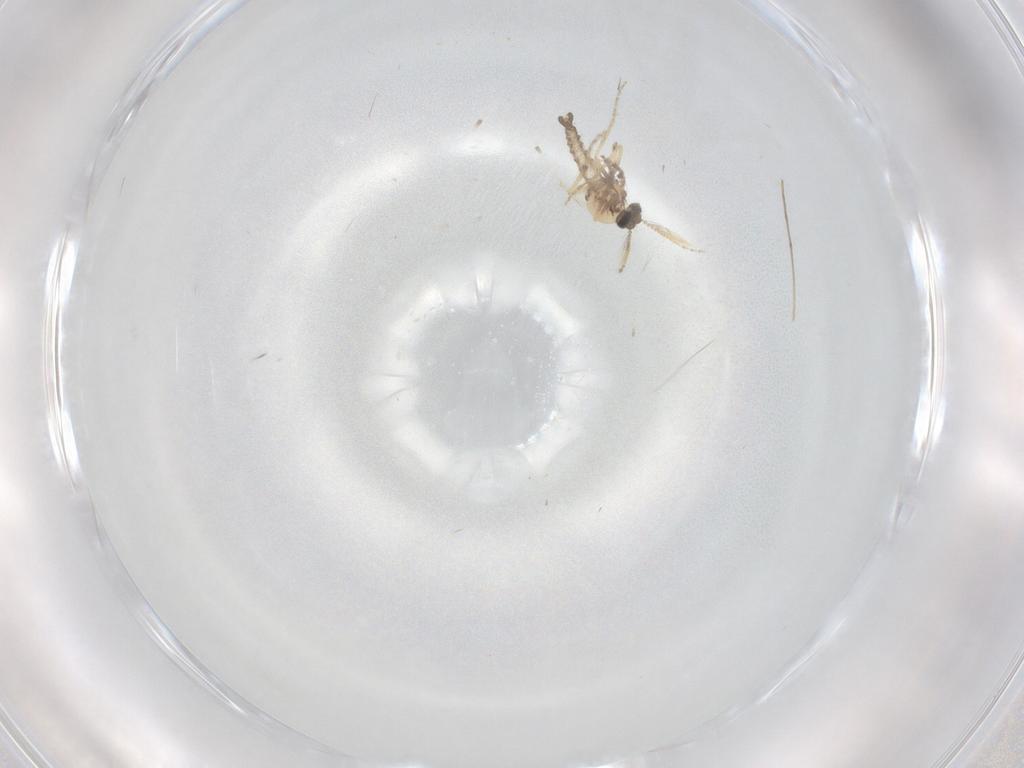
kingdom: Animalia
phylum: Arthropoda
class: Insecta
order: Diptera
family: Ceratopogonidae
